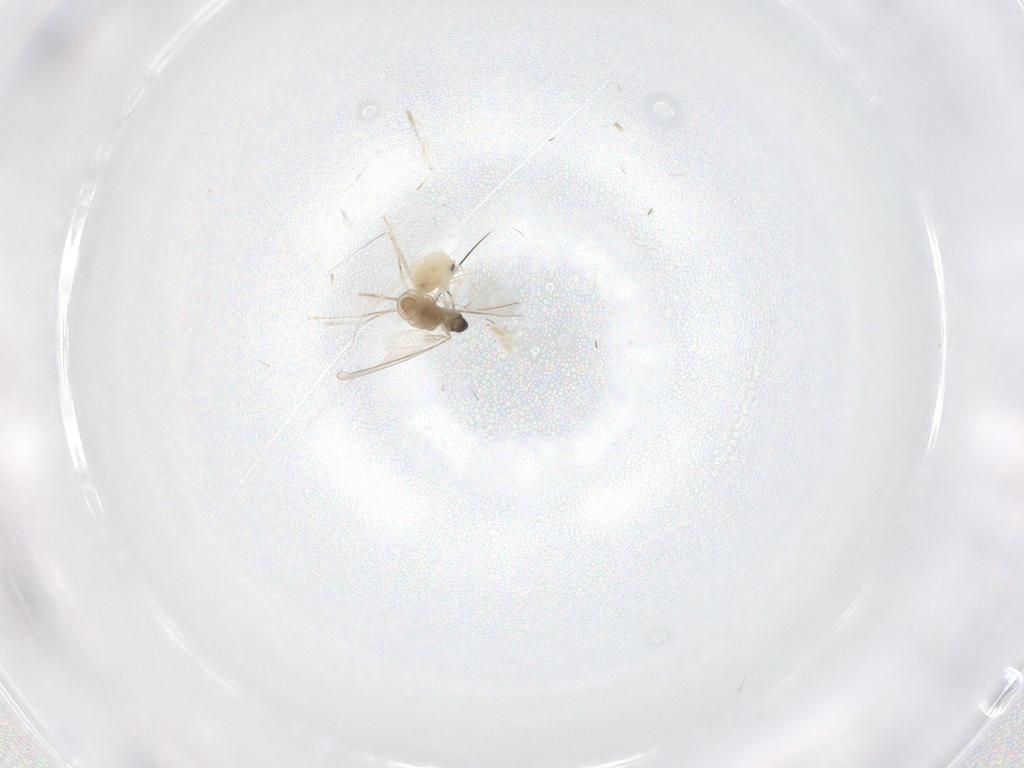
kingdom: Animalia
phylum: Arthropoda
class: Insecta
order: Diptera
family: Cecidomyiidae
